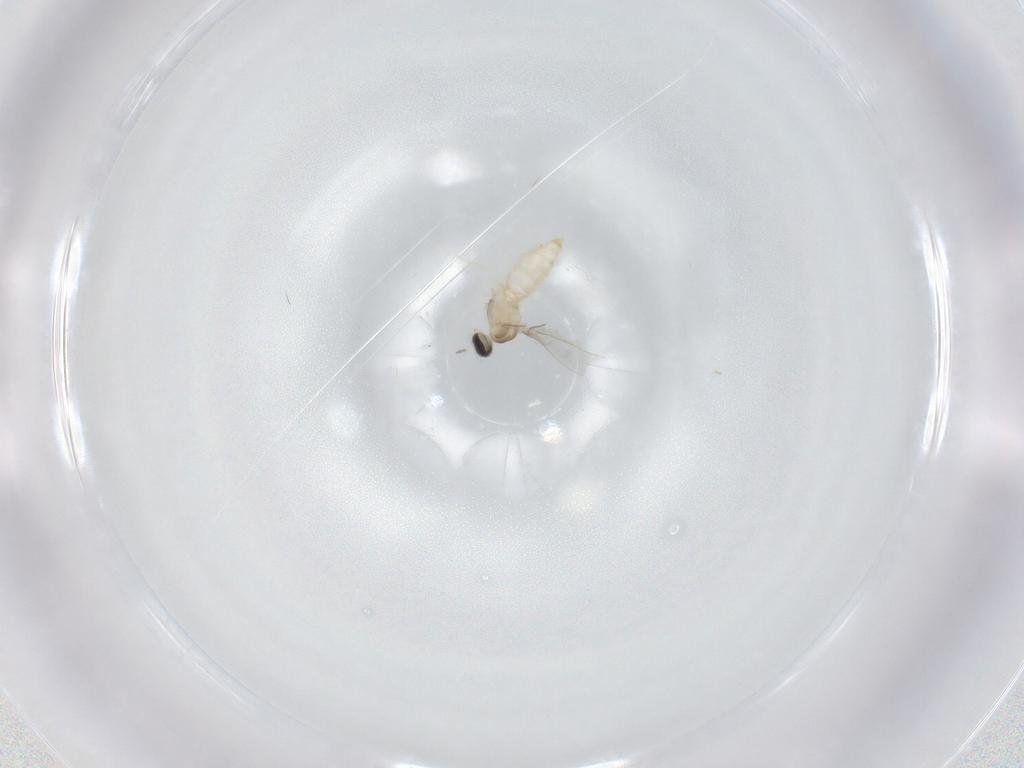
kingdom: Animalia
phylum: Arthropoda
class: Insecta
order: Diptera
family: Cecidomyiidae
